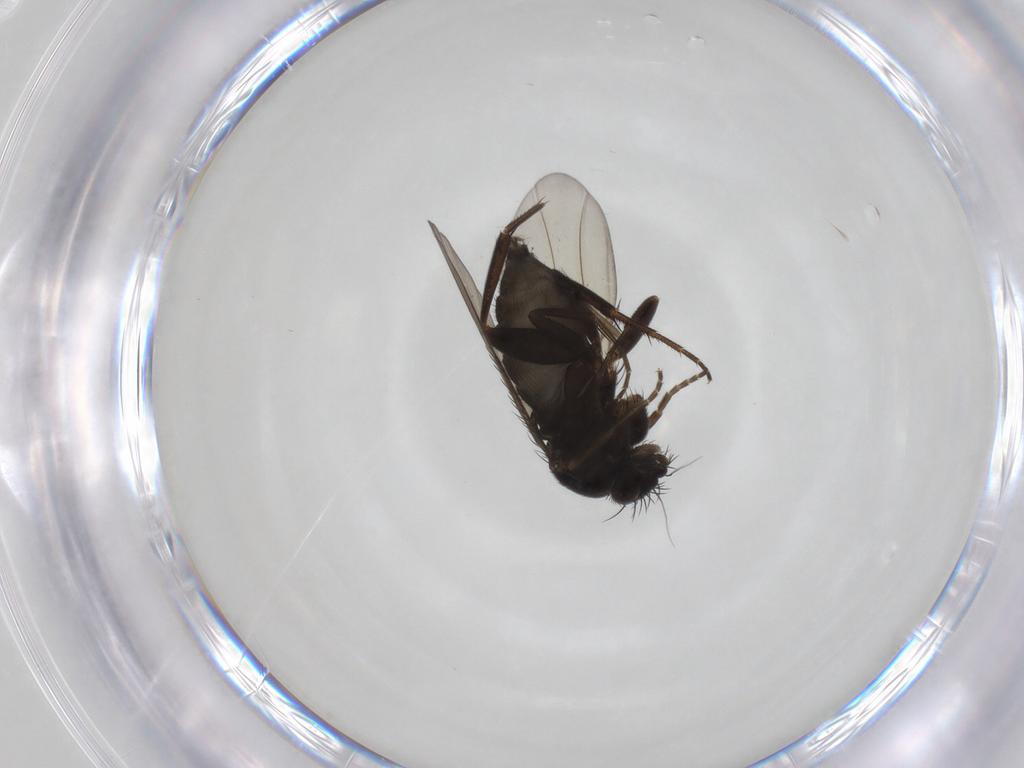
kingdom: Animalia
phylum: Arthropoda
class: Insecta
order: Diptera
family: Phoridae
